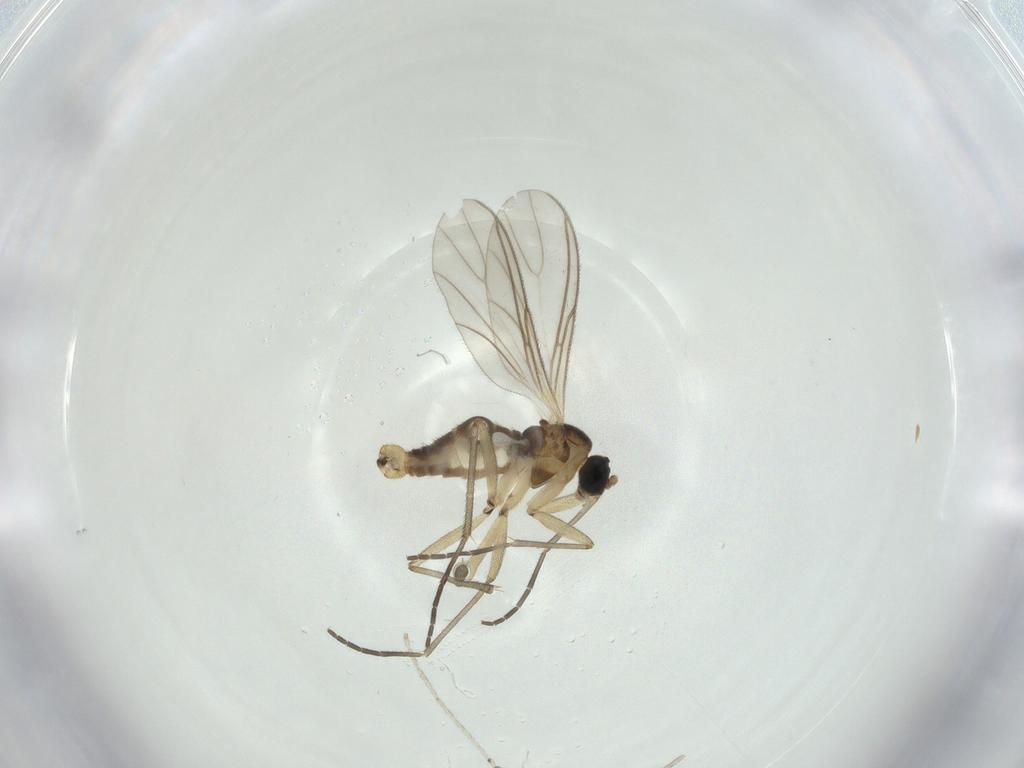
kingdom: Animalia
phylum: Arthropoda
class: Insecta
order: Diptera
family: Cecidomyiidae
